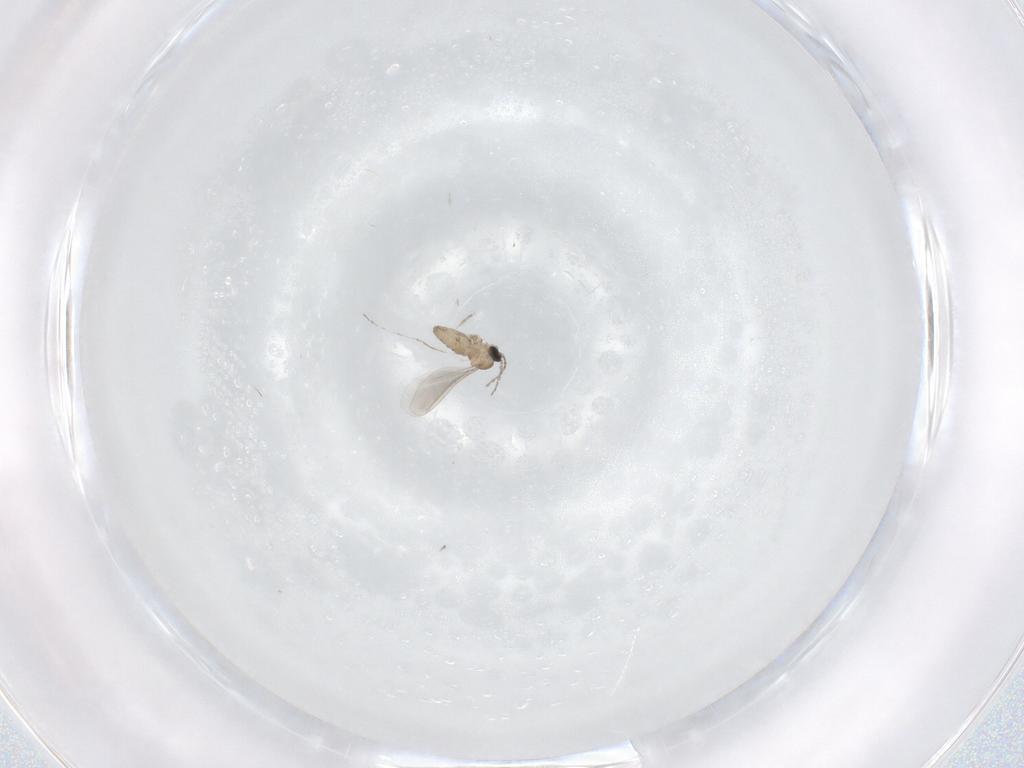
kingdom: Animalia
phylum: Arthropoda
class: Insecta
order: Diptera
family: Cecidomyiidae
